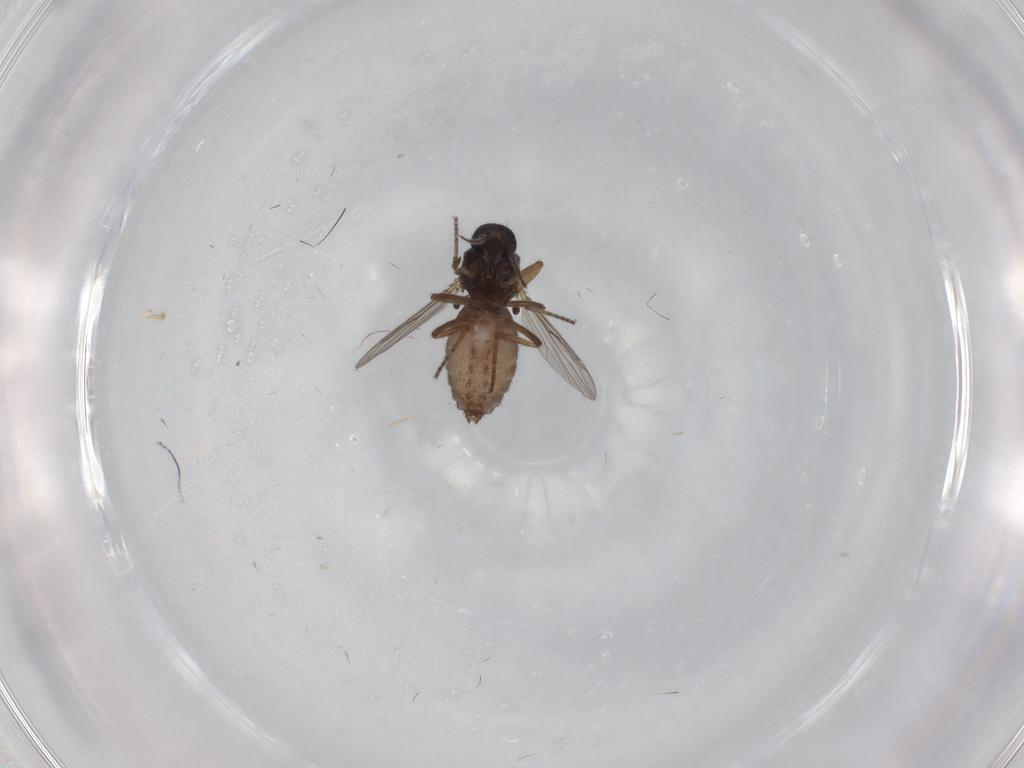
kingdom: Animalia
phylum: Arthropoda
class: Insecta
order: Diptera
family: Ceratopogonidae
